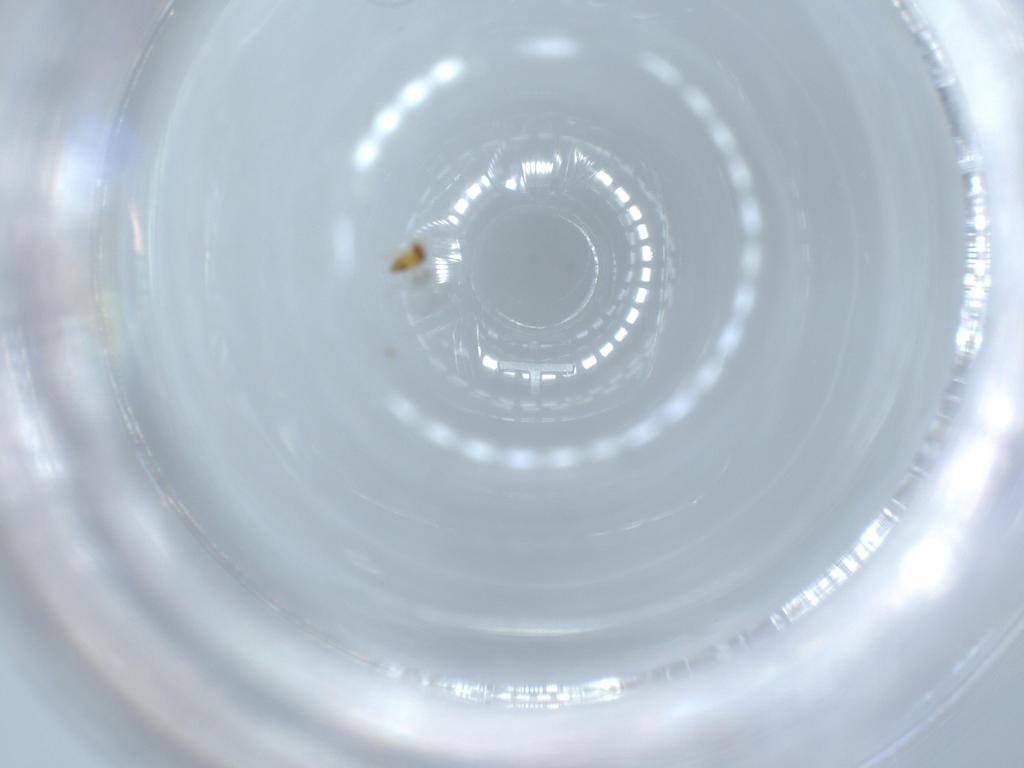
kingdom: Animalia
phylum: Arthropoda
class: Insecta
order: Hymenoptera
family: Trichogrammatidae
